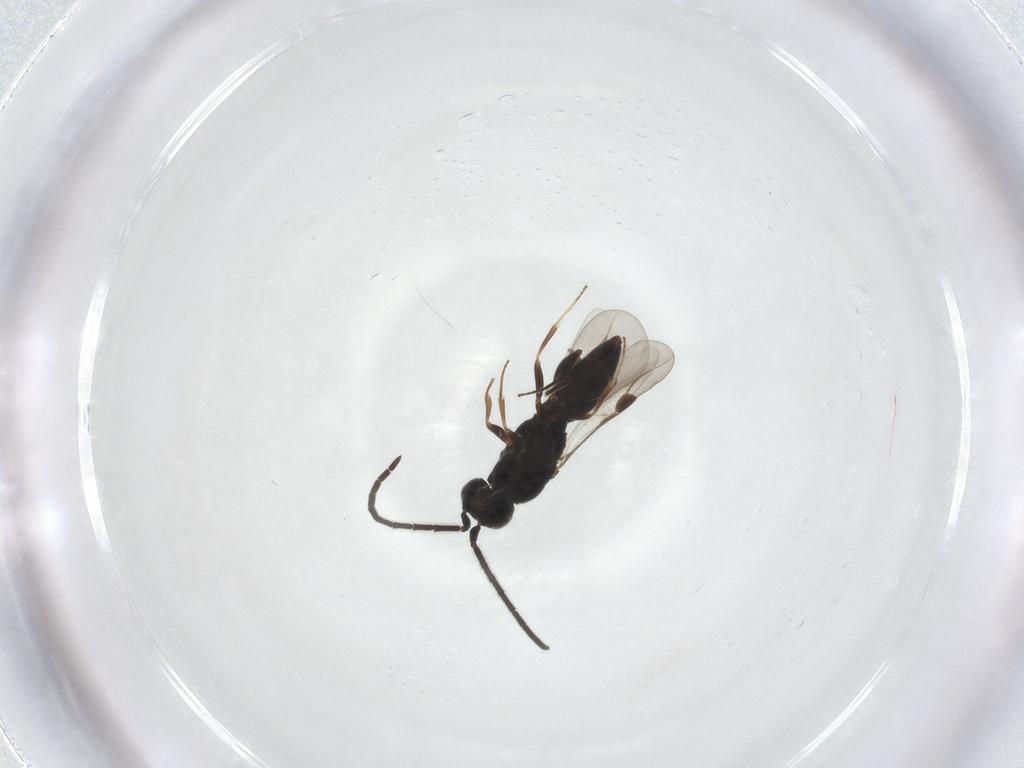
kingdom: Animalia
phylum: Arthropoda
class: Insecta
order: Hymenoptera
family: Megaspilidae
